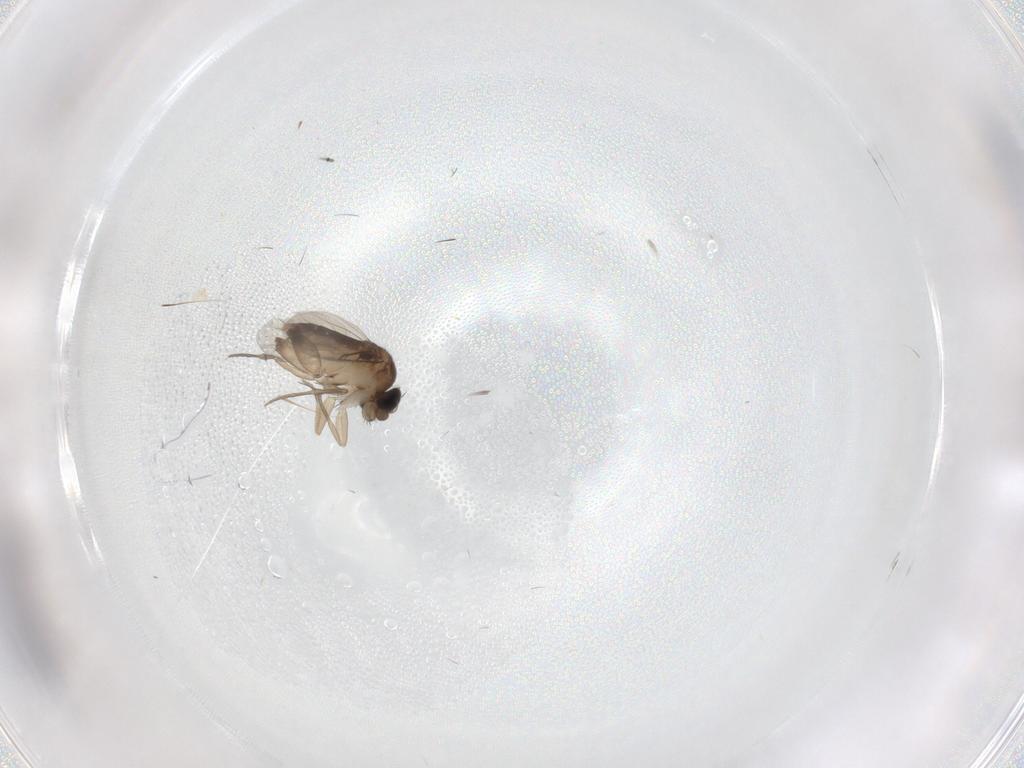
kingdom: Animalia
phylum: Arthropoda
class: Insecta
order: Diptera
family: Phoridae
